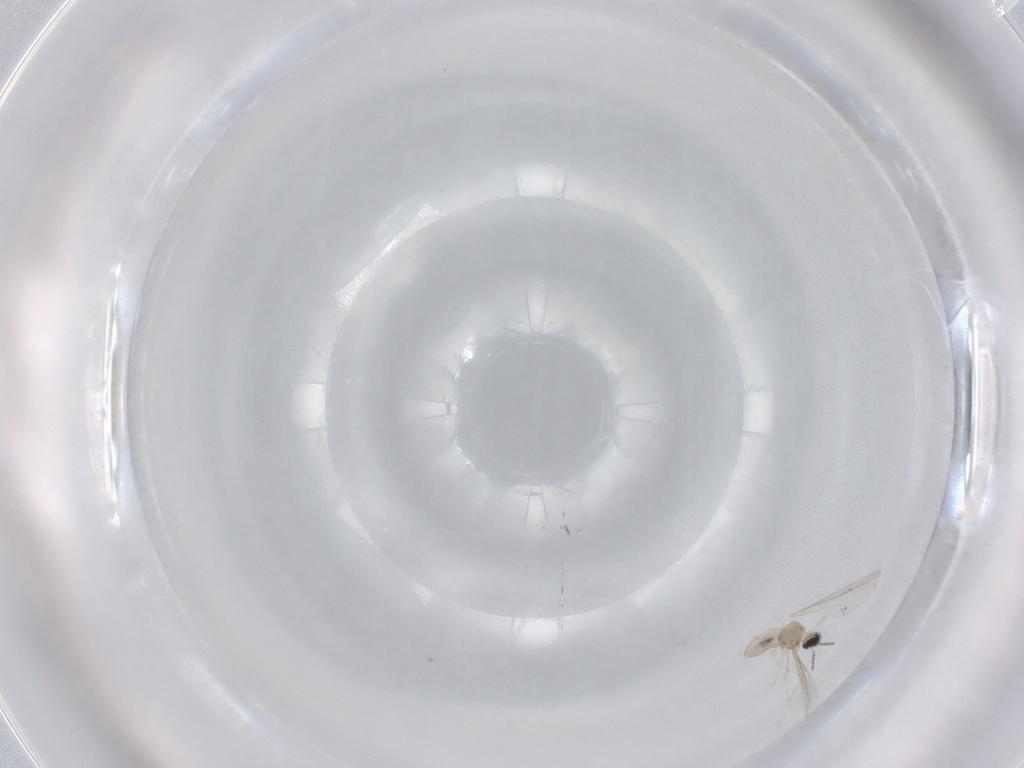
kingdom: Animalia
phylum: Arthropoda
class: Insecta
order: Diptera
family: Cecidomyiidae
